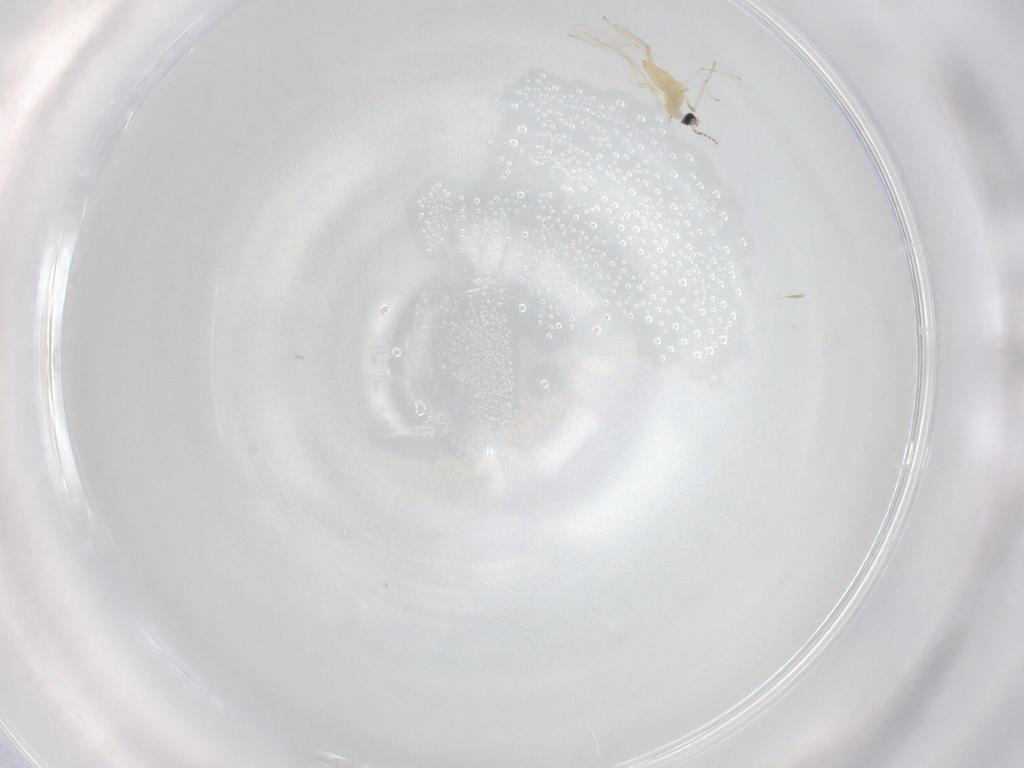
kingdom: Animalia
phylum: Arthropoda
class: Insecta
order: Diptera
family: Cecidomyiidae
